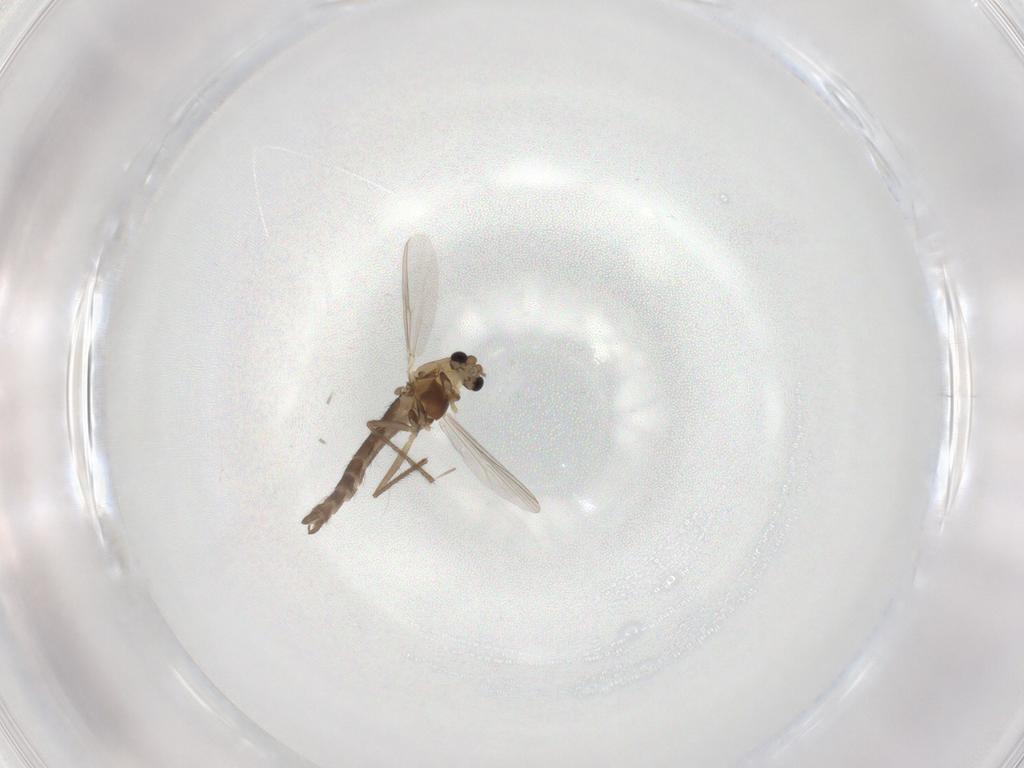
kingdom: Animalia
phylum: Arthropoda
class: Insecta
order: Diptera
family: Chironomidae
